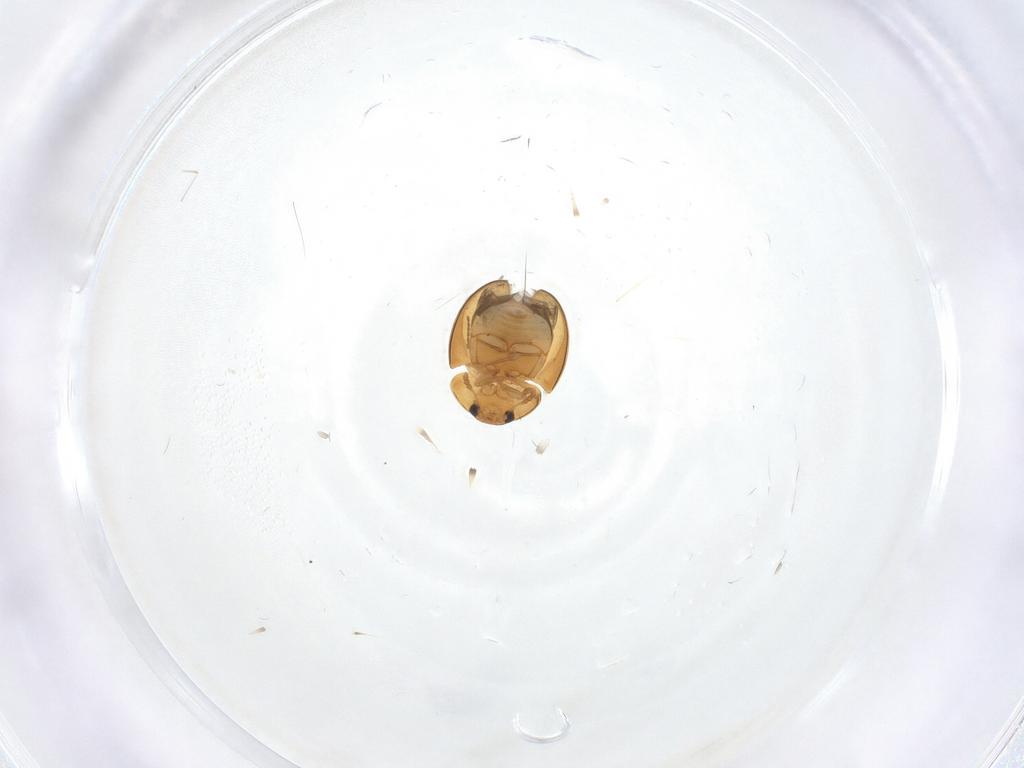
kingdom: Animalia
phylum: Arthropoda
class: Insecta
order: Coleoptera
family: Phalacridae
